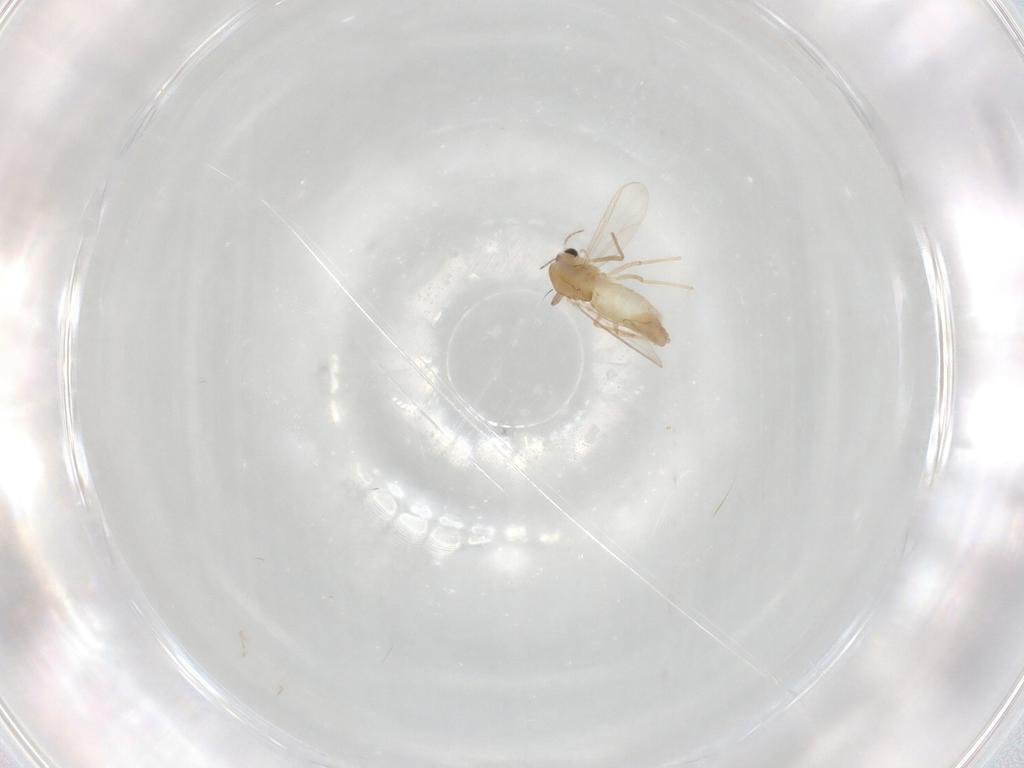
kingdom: Animalia
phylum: Arthropoda
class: Insecta
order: Diptera
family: Chironomidae
